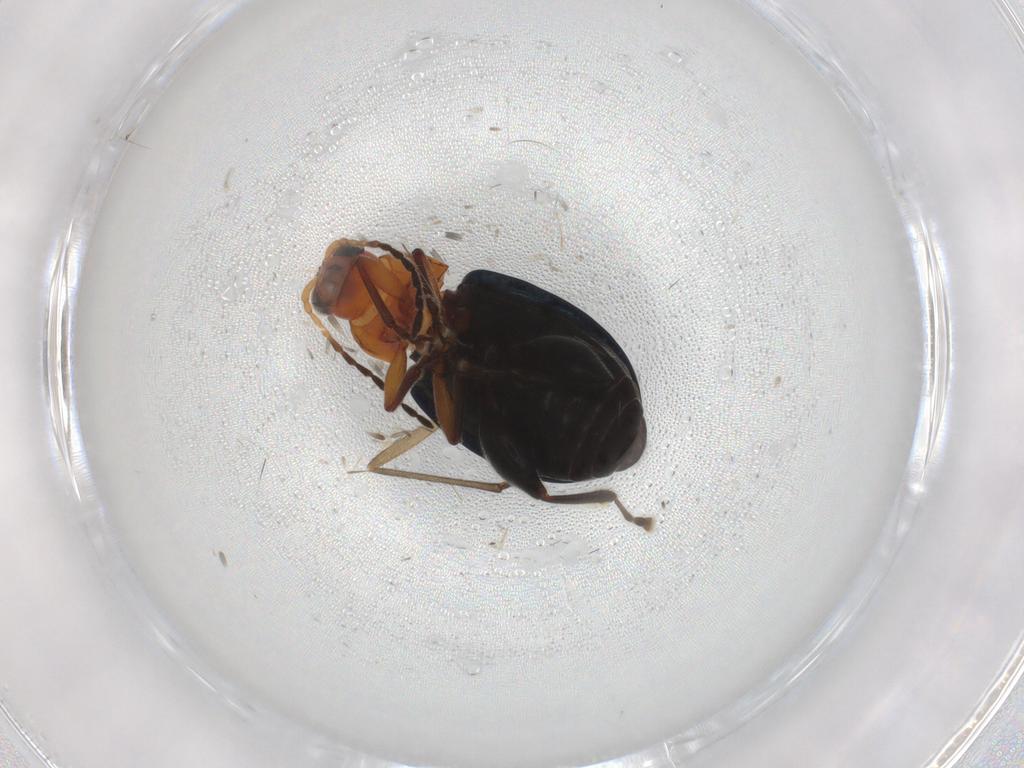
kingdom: Animalia
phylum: Arthropoda
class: Insecta
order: Coleoptera
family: Chrysomelidae
